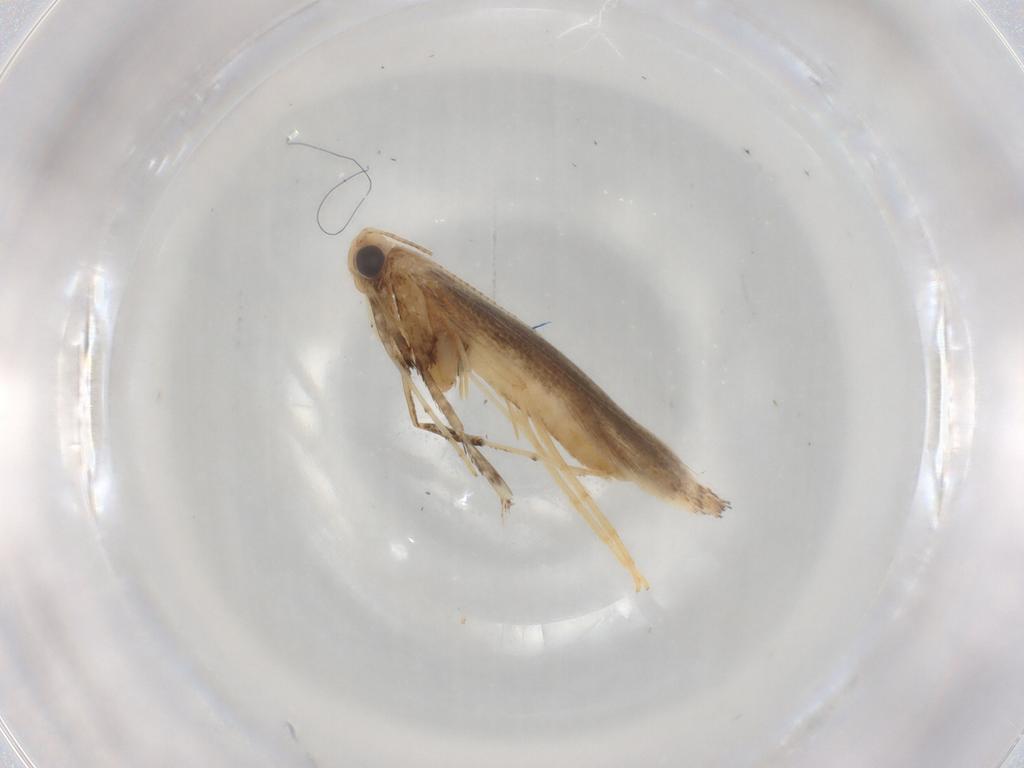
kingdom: Animalia
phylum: Arthropoda
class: Insecta
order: Lepidoptera
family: Gracillariidae
